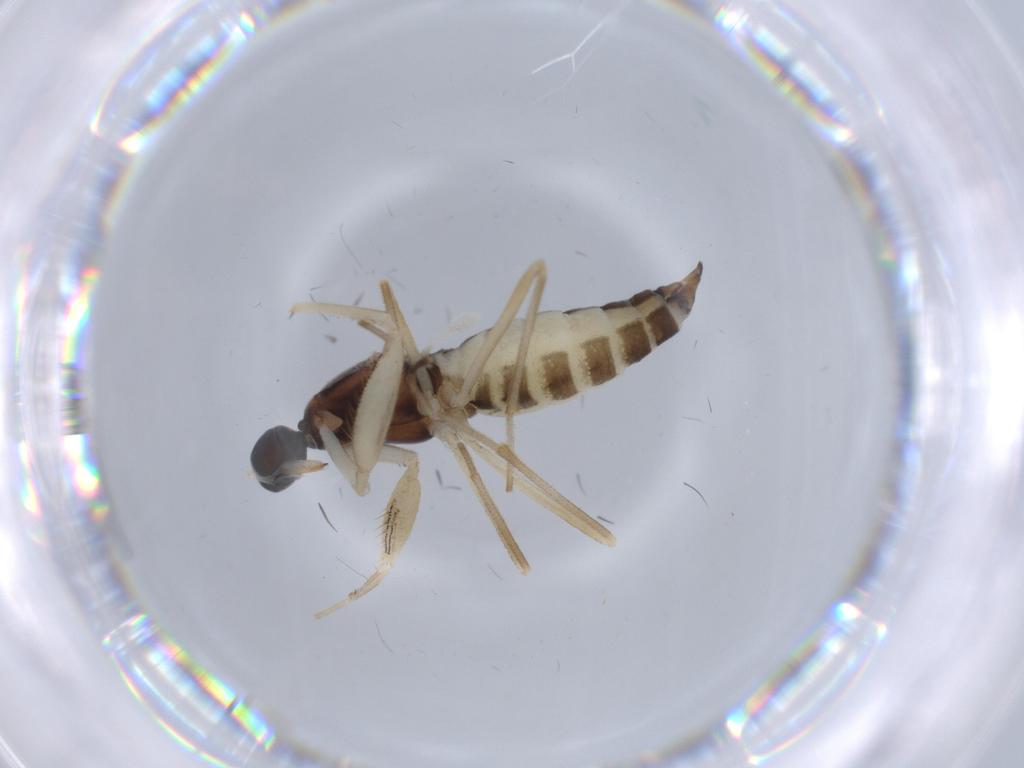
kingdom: Animalia
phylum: Arthropoda
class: Insecta
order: Diptera
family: Empididae
